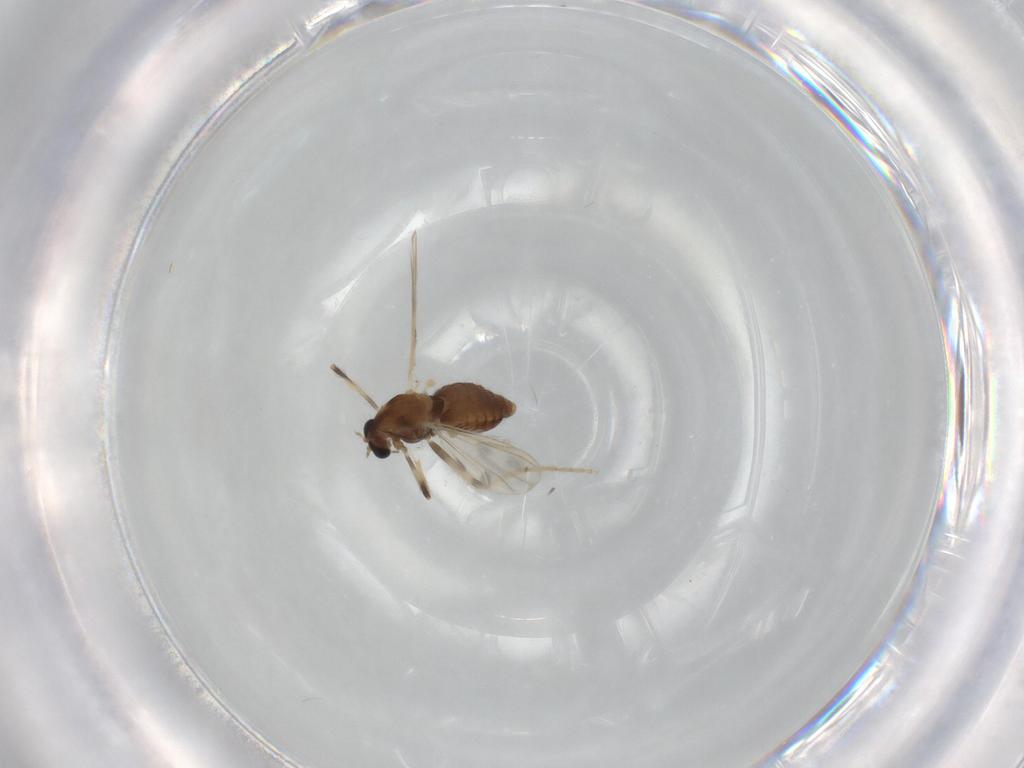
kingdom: Animalia
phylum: Arthropoda
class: Insecta
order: Diptera
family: Chironomidae
